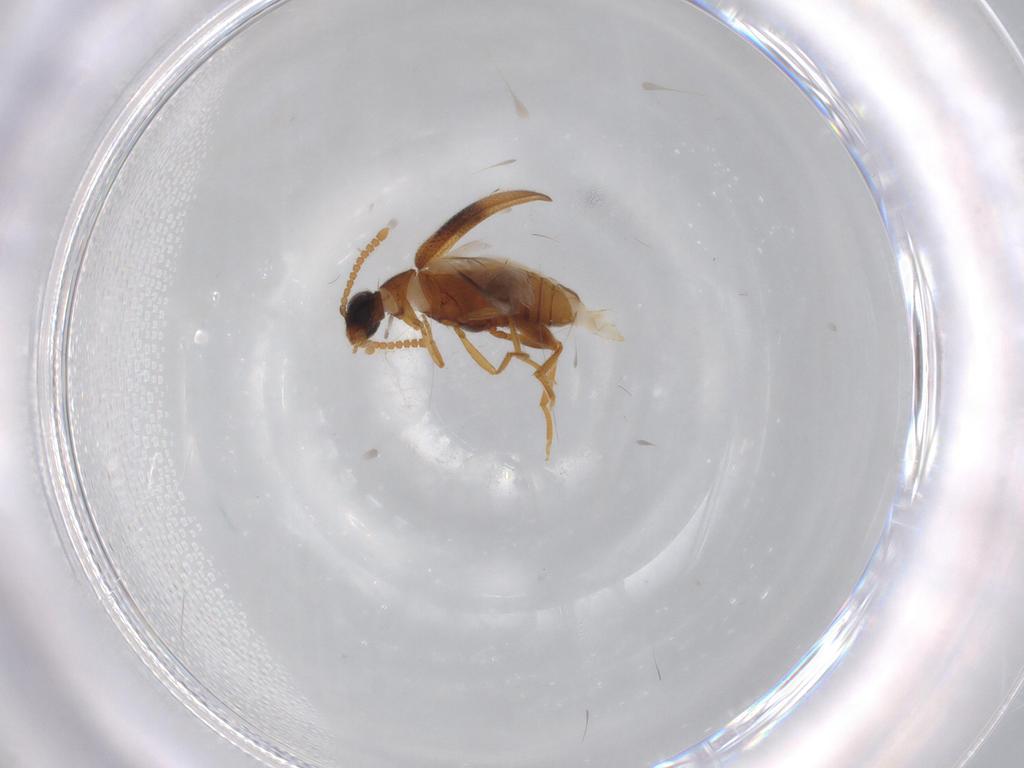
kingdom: Animalia
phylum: Arthropoda
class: Insecta
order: Coleoptera
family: Aderidae
